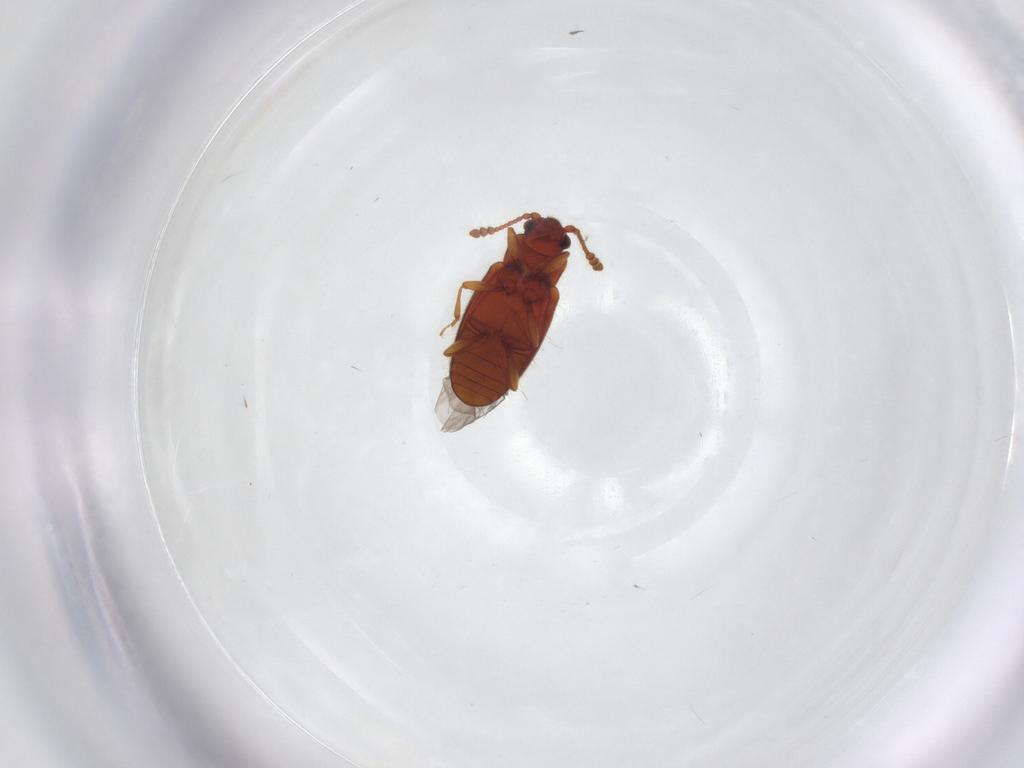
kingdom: Animalia
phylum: Arthropoda
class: Insecta
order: Coleoptera
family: Cryptophagidae
